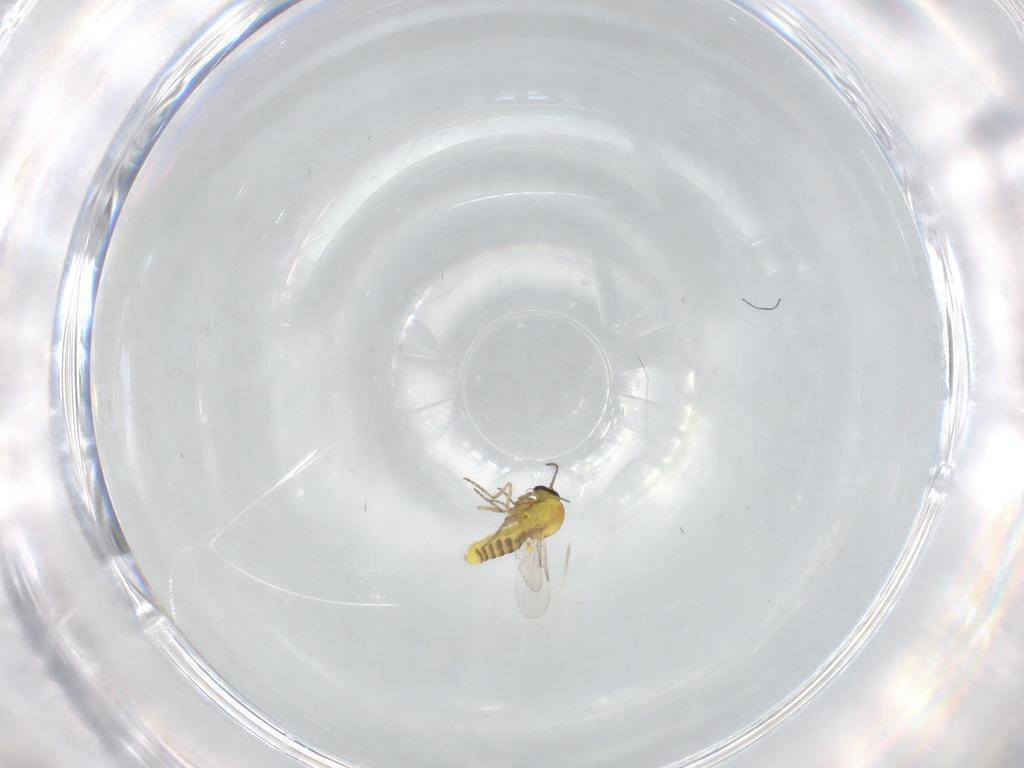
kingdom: Animalia
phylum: Arthropoda
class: Insecta
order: Diptera
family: Ceratopogonidae
